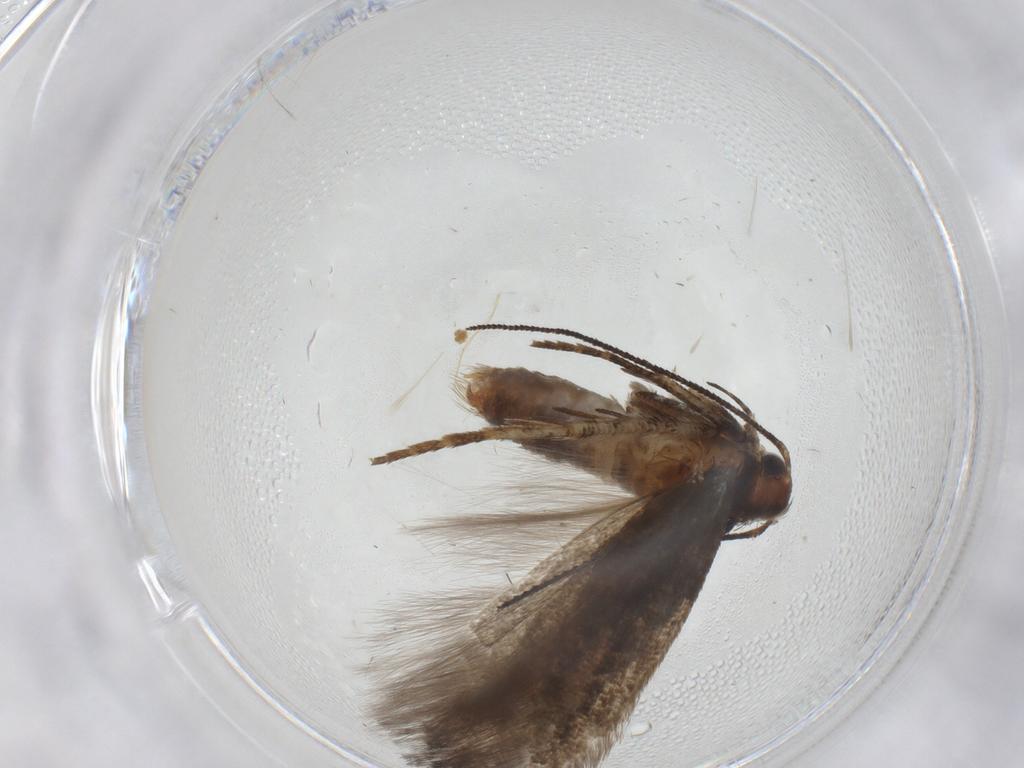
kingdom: Animalia
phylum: Arthropoda
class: Insecta
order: Lepidoptera
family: Gelechiidae
